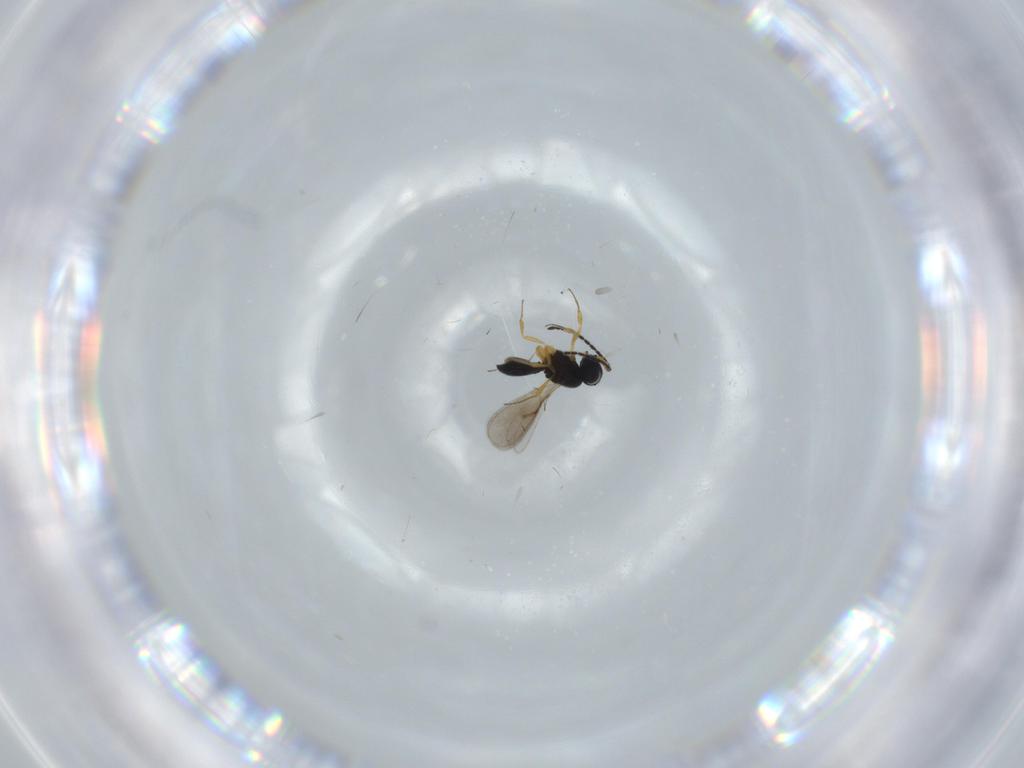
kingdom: Animalia
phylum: Arthropoda
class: Insecta
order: Hymenoptera
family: Scelionidae
